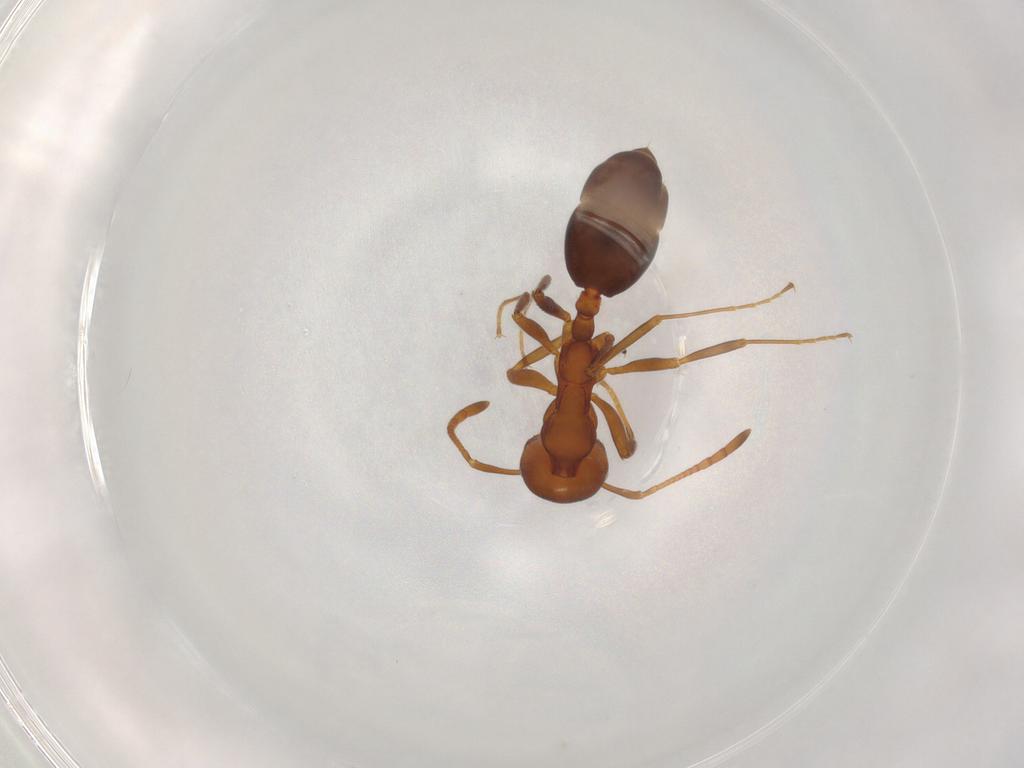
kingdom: Animalia
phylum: Arthropoda
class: Insecta
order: Hymenoptera
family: Formicidae
